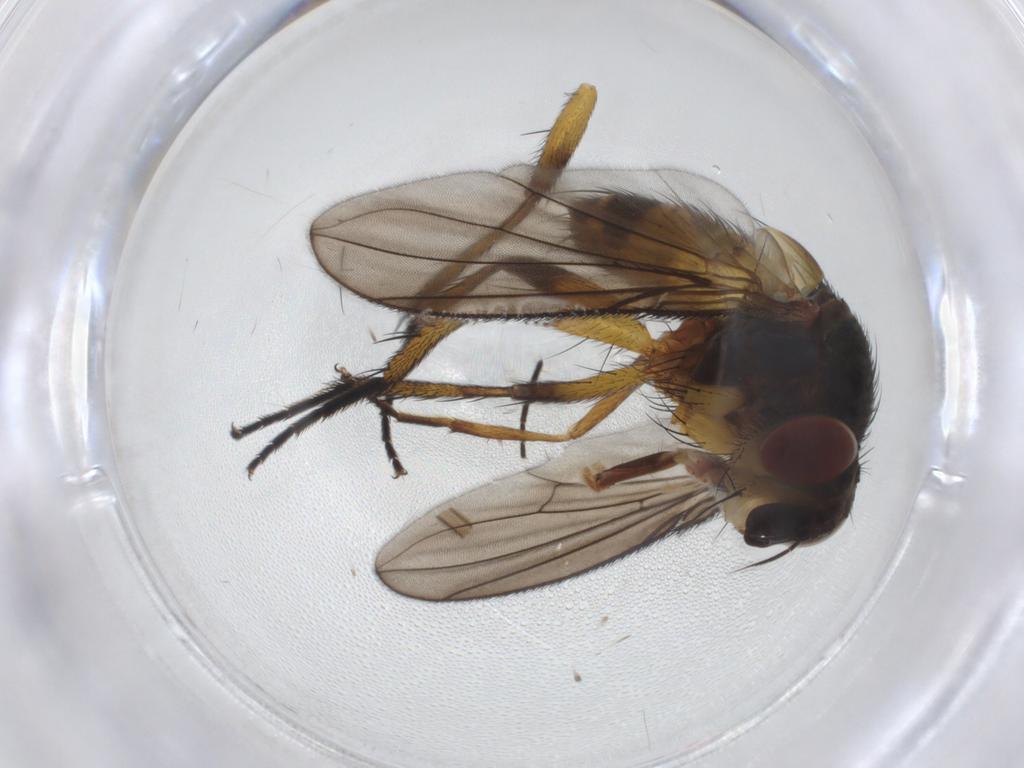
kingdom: Animalia
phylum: Arthropoda
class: Insecta
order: Diptera
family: Tachinidae
